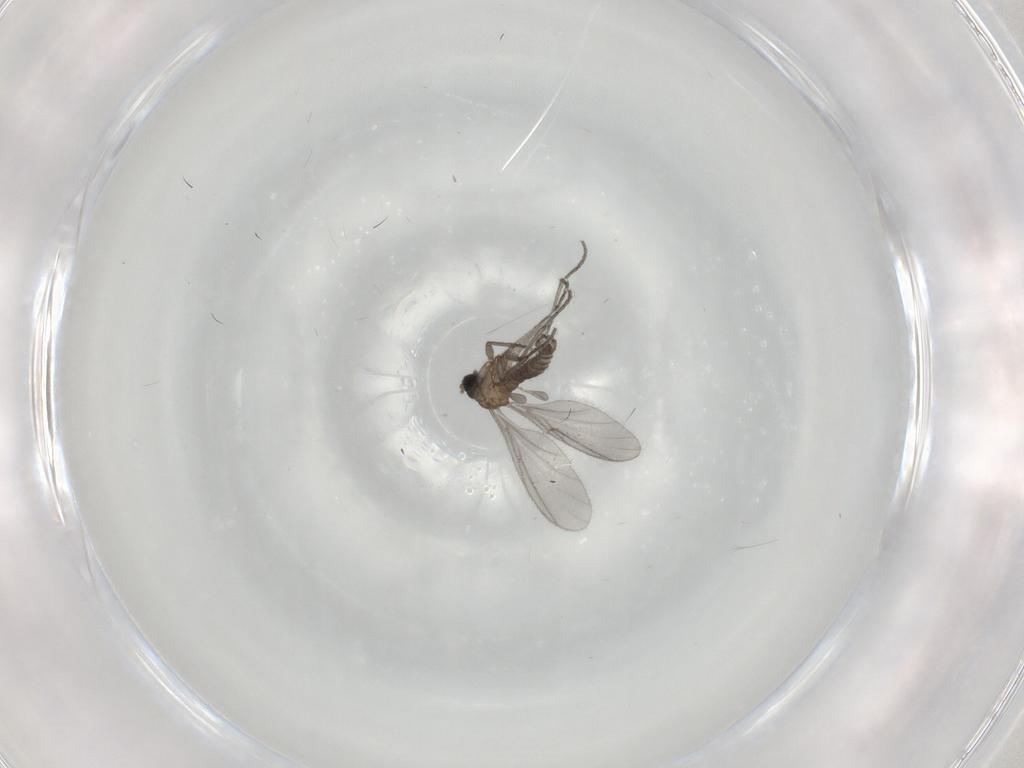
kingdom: Animalia
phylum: Arthropoda
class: Insecta
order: Diptera
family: Sciaridae
